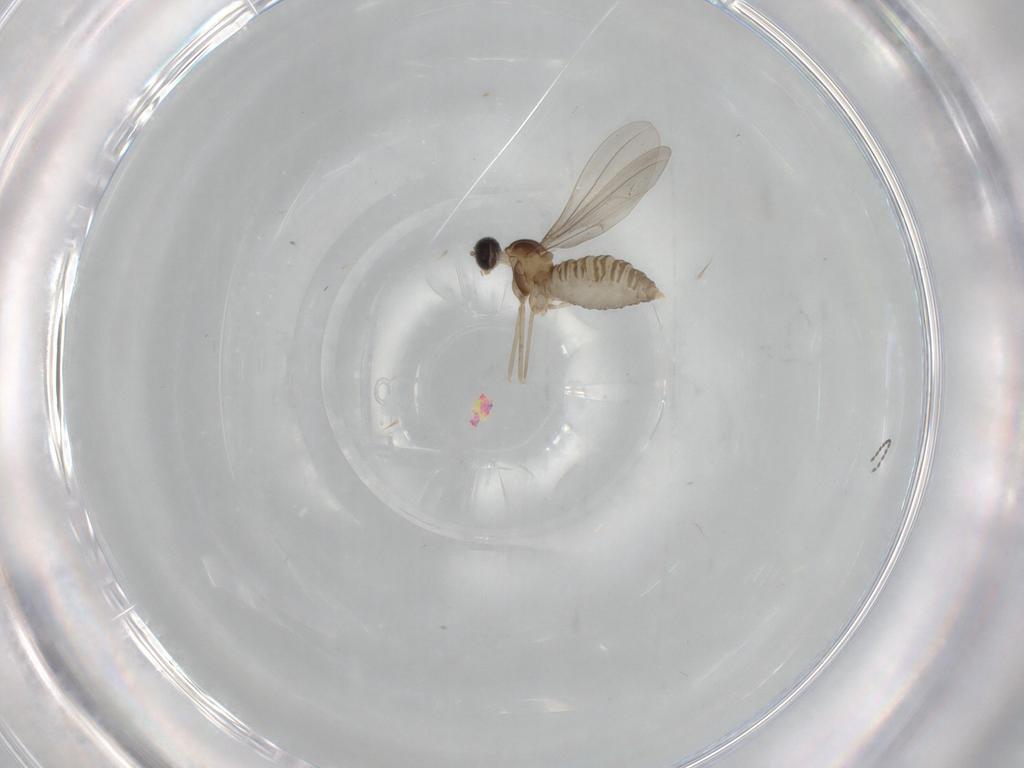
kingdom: Animalia
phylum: Arthropoda
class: Insecta
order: Diptera
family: Cecidomyiidae
